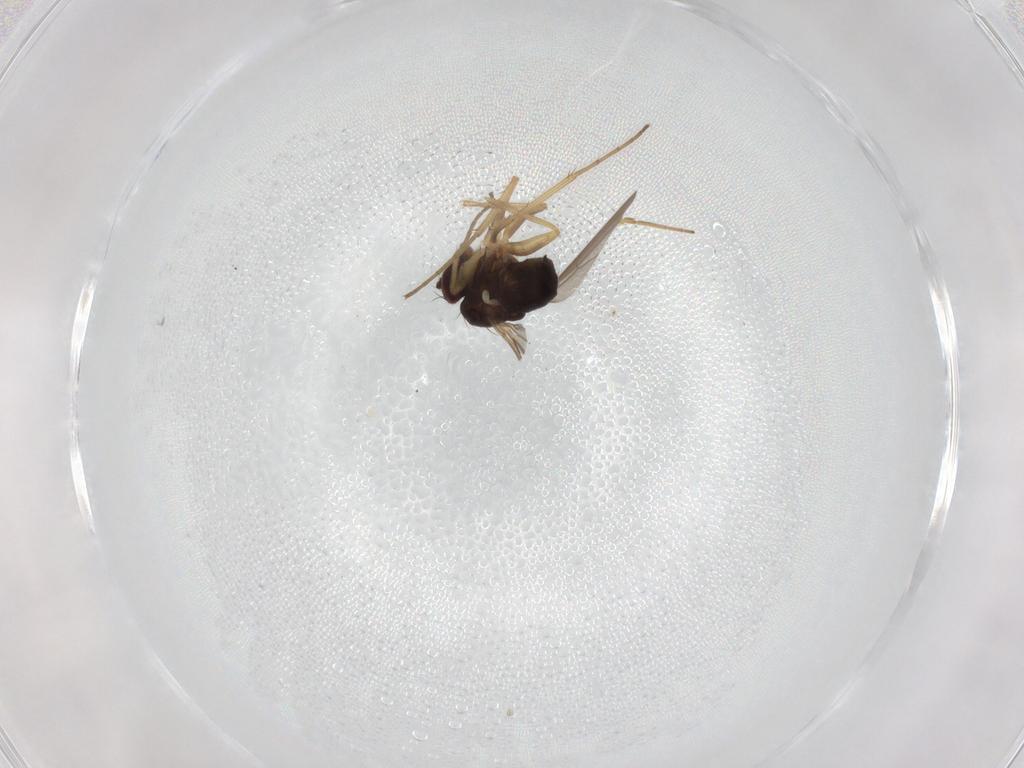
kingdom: Animalia
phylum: Arthropoda
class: Insecta
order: Diptera
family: Dolichopodidae
